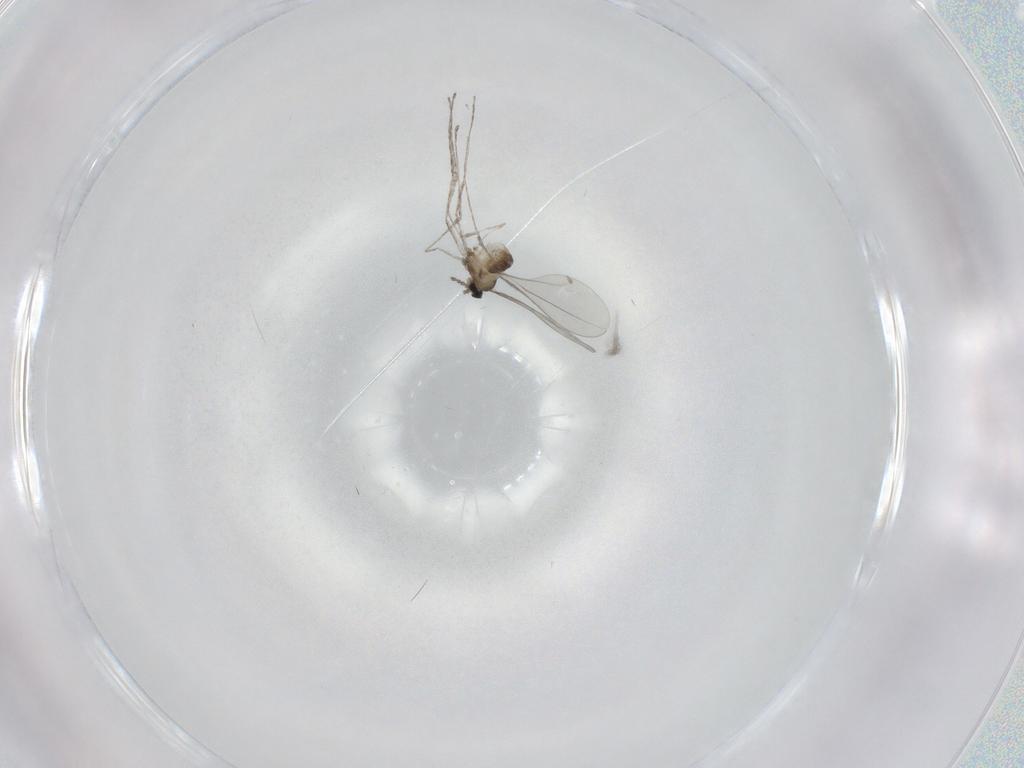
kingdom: Animalia
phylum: Arthropoda
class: Insecta
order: Diptera
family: Cecidomyiidae
